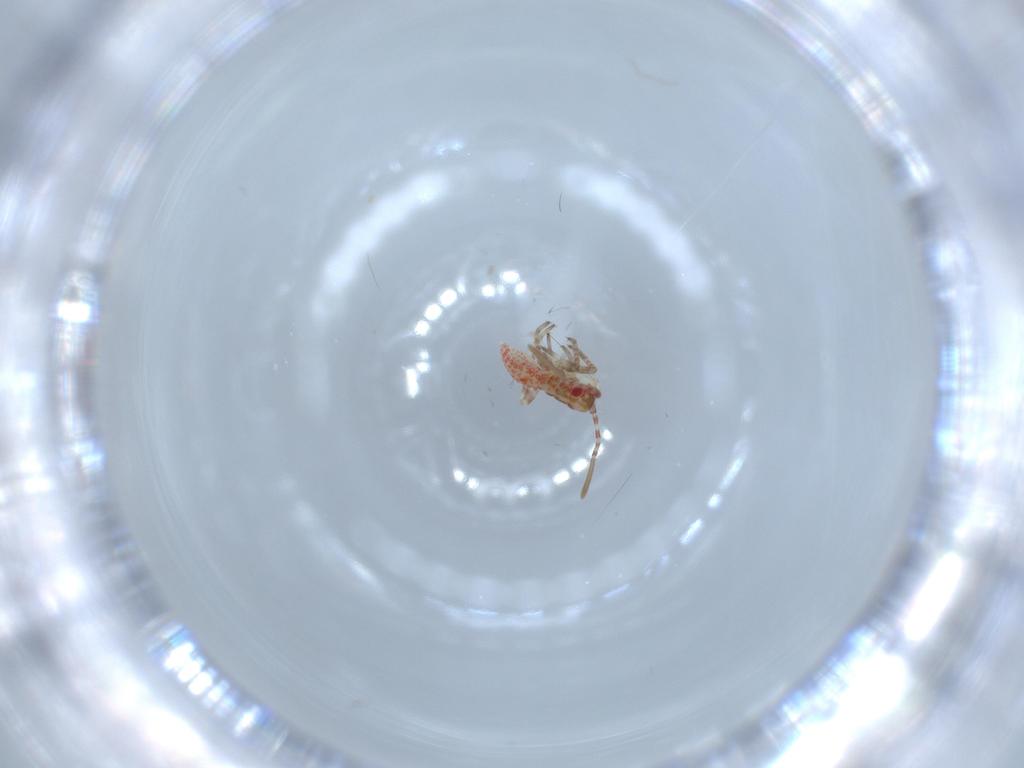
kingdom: Animalia
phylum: Arthropoda
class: Insecta
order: Hemiptera
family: Miridae
